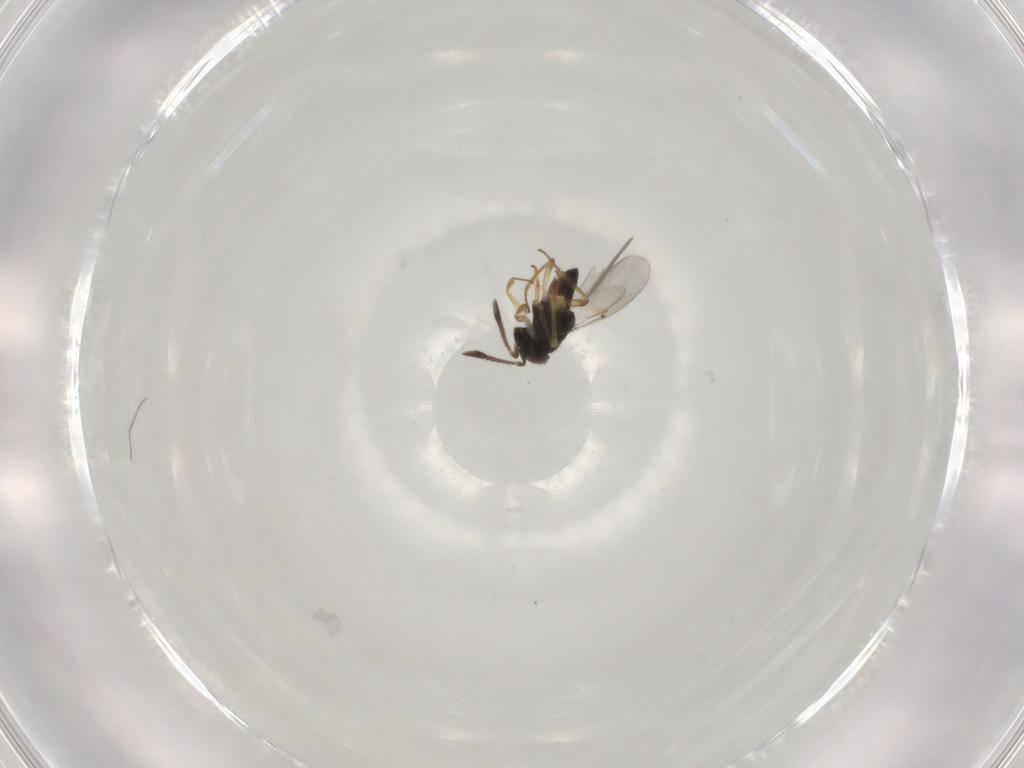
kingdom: Animalia
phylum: Arthropoda
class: Insecta
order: Hymenoptera
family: Encyrtidae
